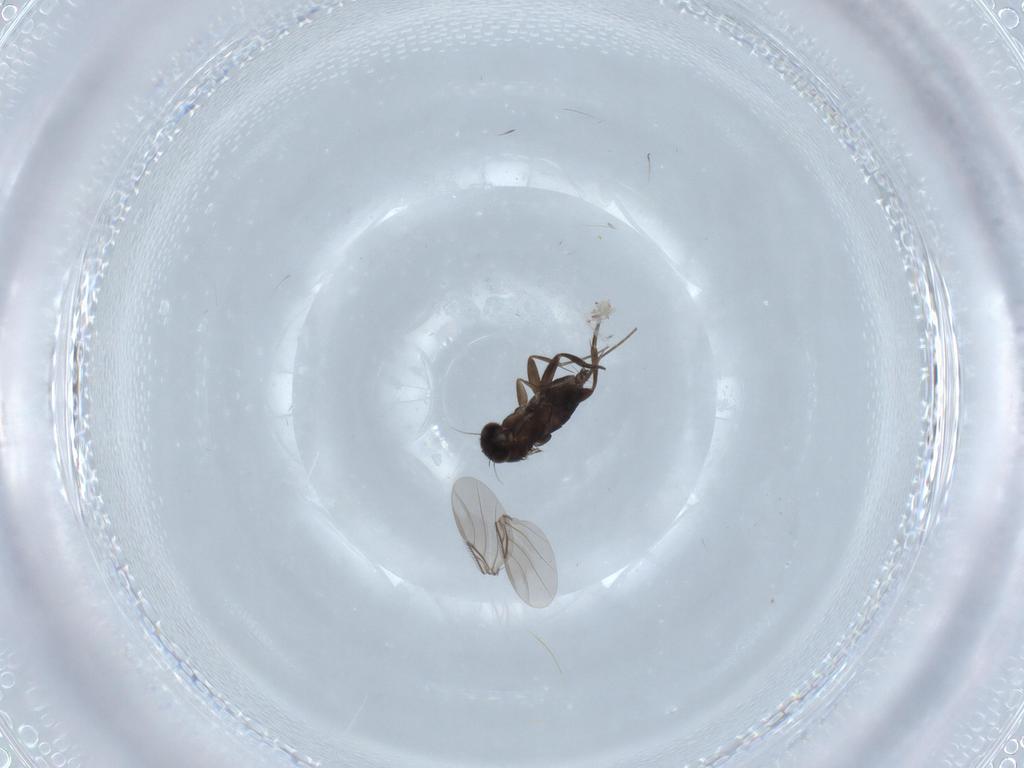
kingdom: Animalia
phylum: Arthropoda
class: Insecta
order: Diptera
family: Phoridae
